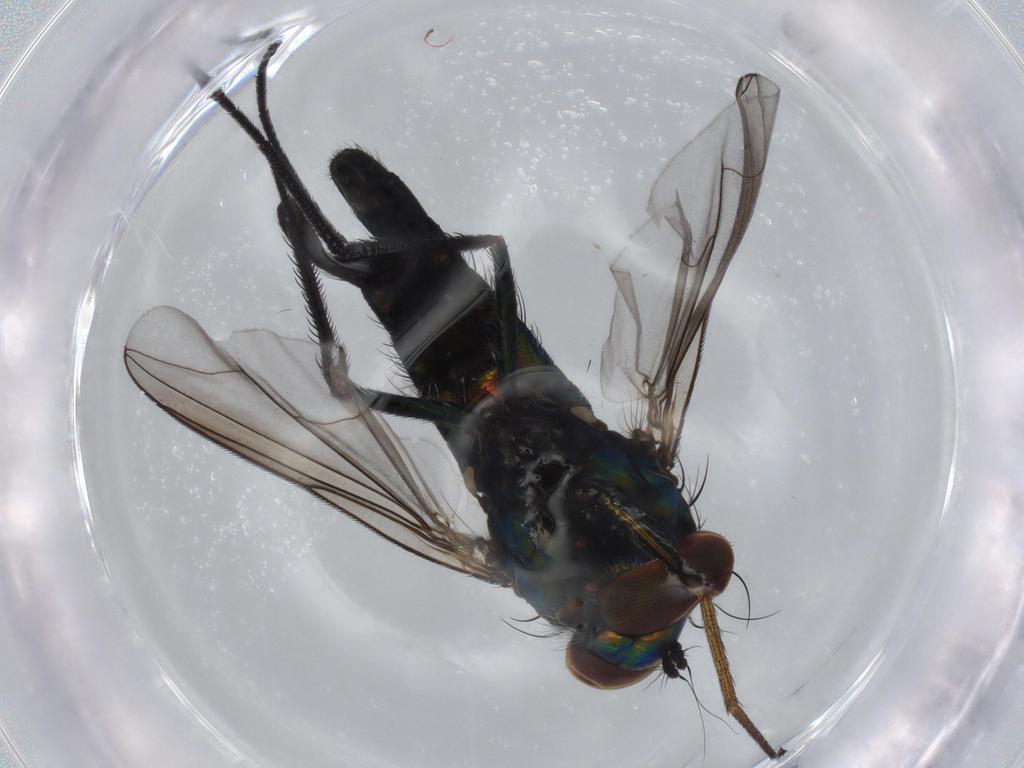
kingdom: Animalia
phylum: Arthropoda
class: Insecta
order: Diptera
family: Dolichopodidae
